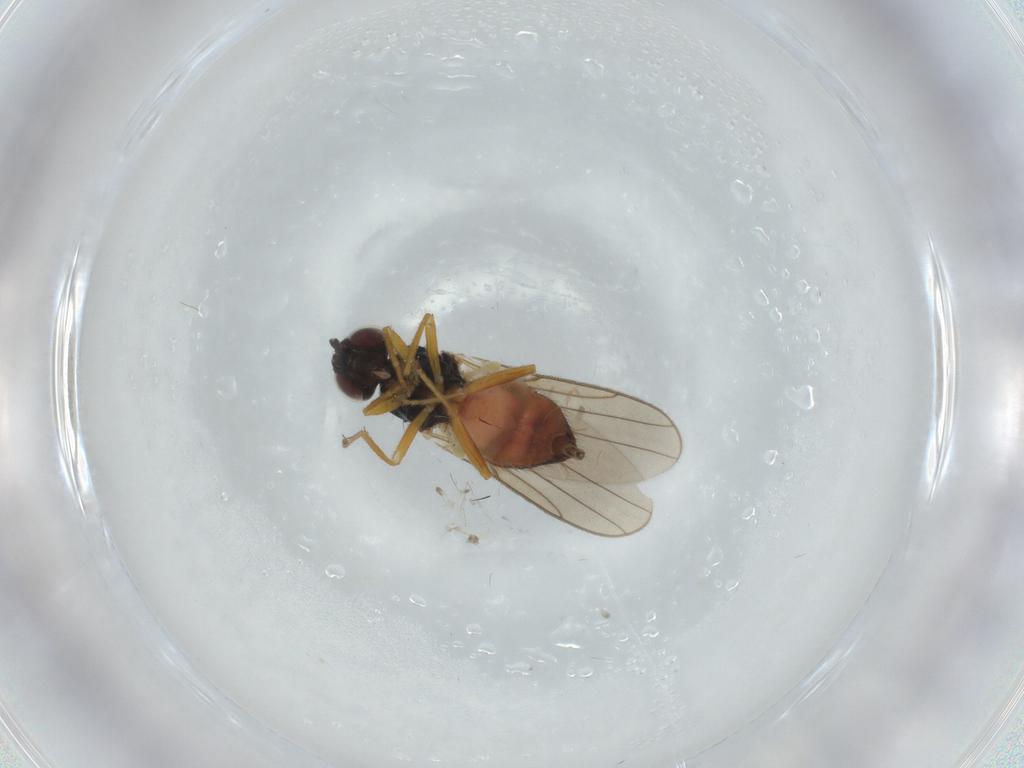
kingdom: Animalia
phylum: Arthropoda
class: Insecta
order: Diptera
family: Chloropidae
